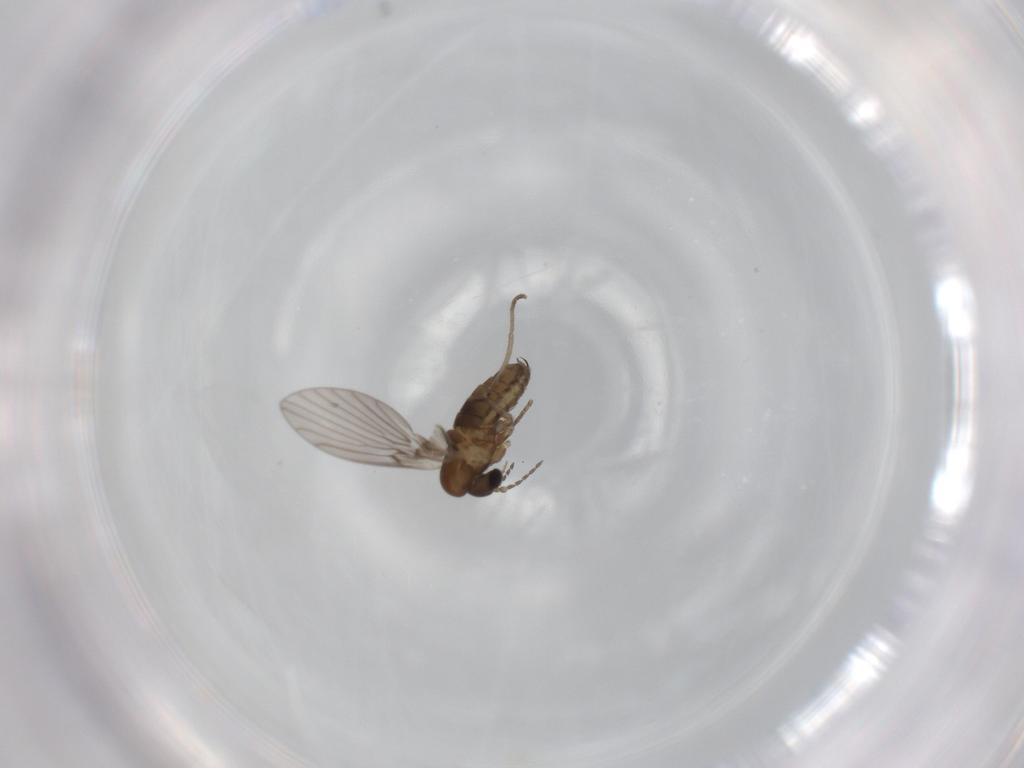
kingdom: Animalia
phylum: Arthropoda
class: Insecta
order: Diptera
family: Psychodidae
